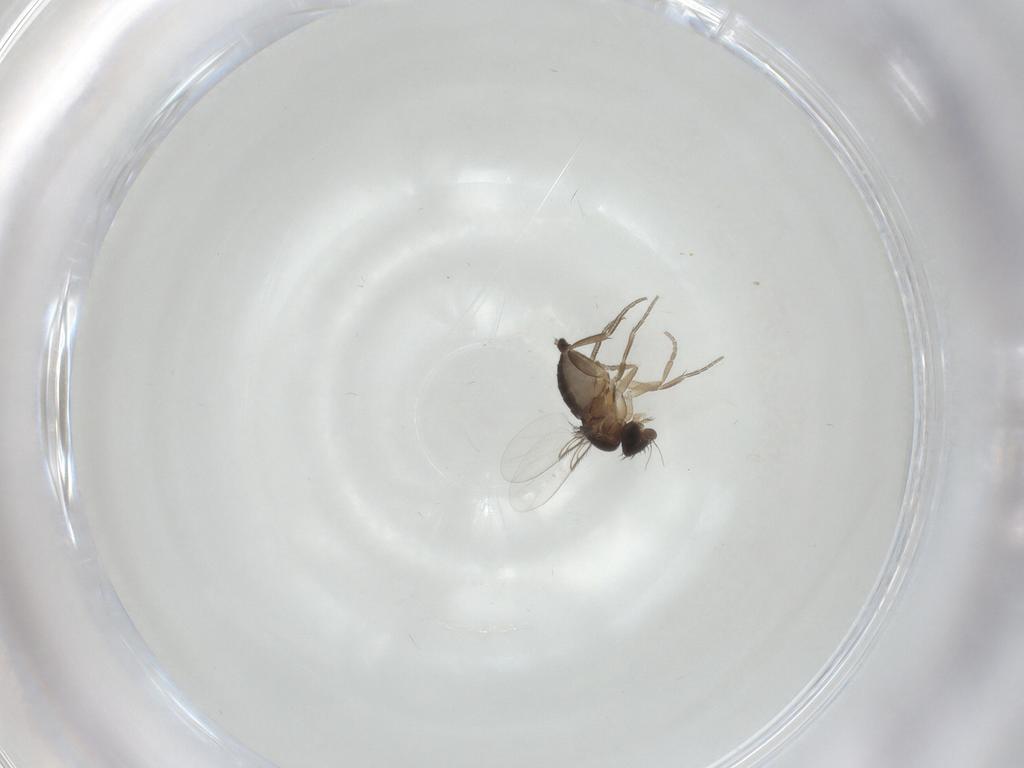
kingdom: Animalia
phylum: Arthropoda
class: Insecta
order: Diptera
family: Phoridae
